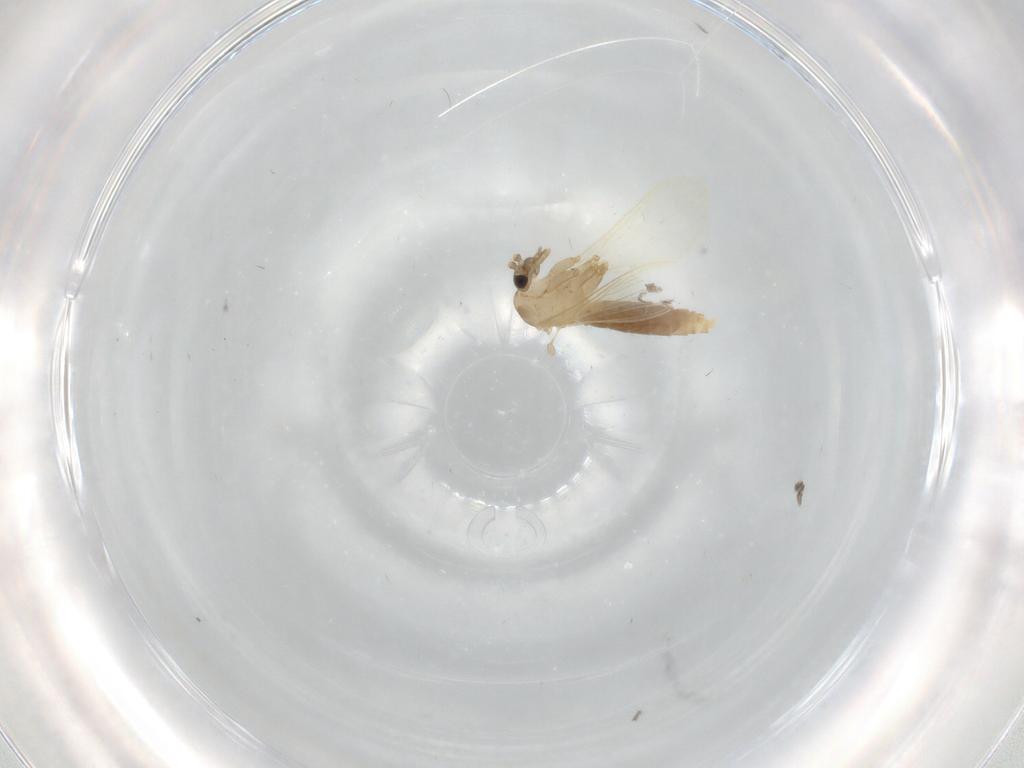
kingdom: Animalia
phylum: Arthropoda
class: Insecta
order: Diptera
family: Psychodidae
